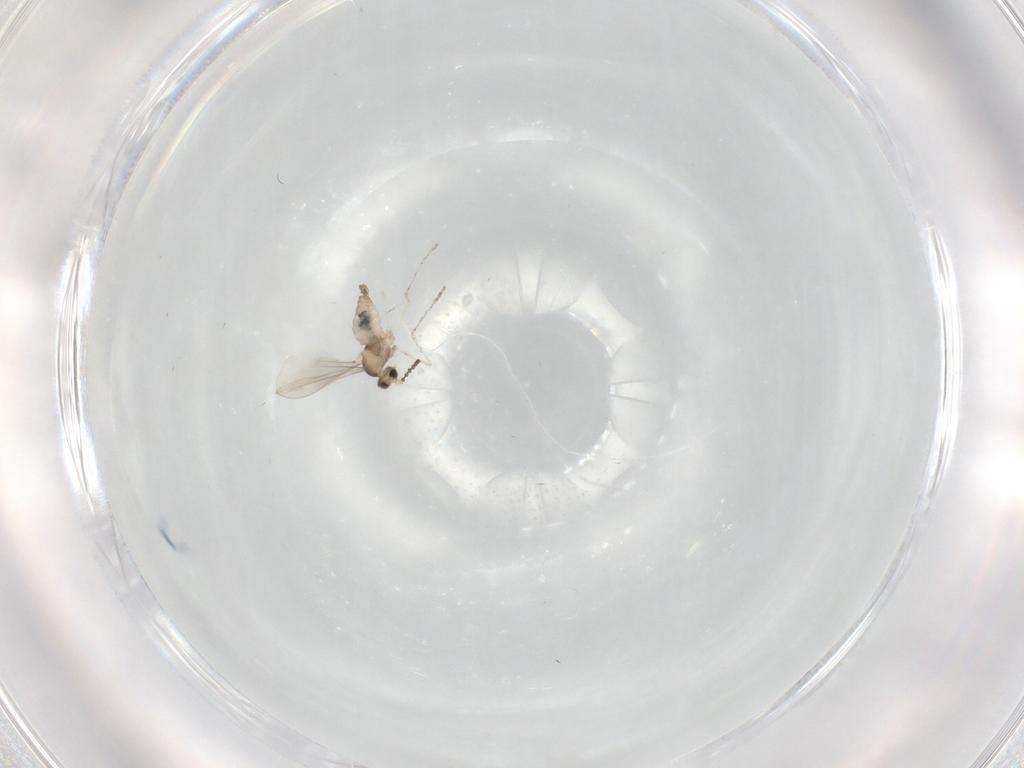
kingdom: Animalia
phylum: Arthropoda
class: Insecta
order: Diptera
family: Cecidomyiidae
